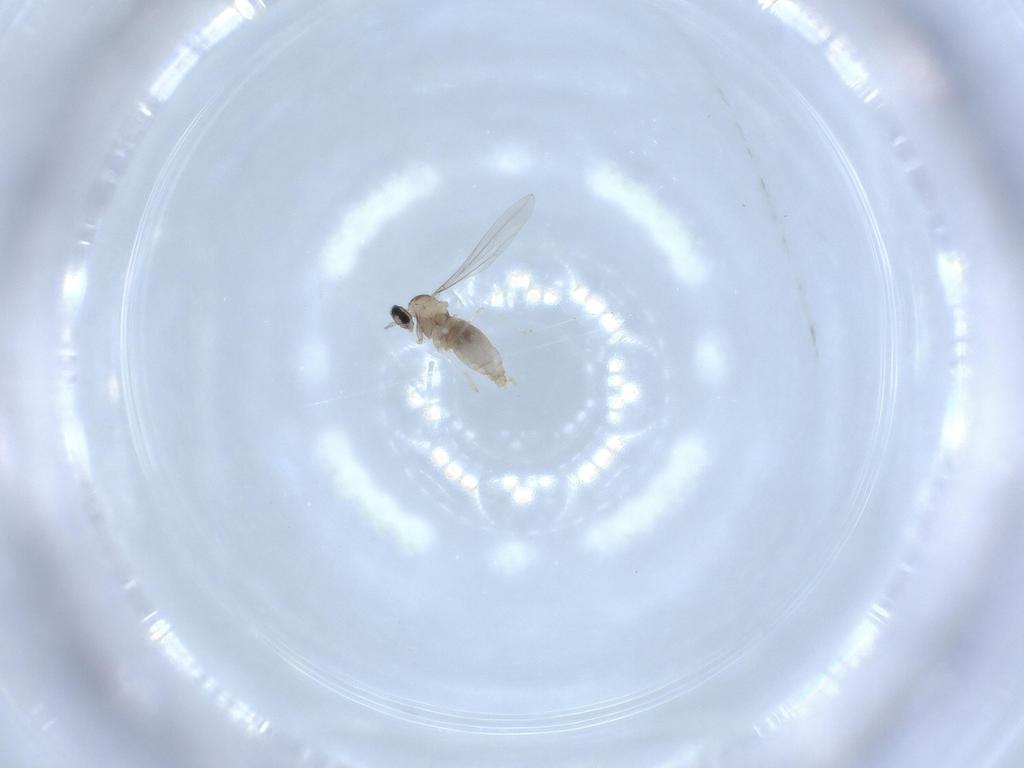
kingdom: Animalia
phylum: Arthropoda
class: Insecta
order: Diptera
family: Cecidomyiidae
